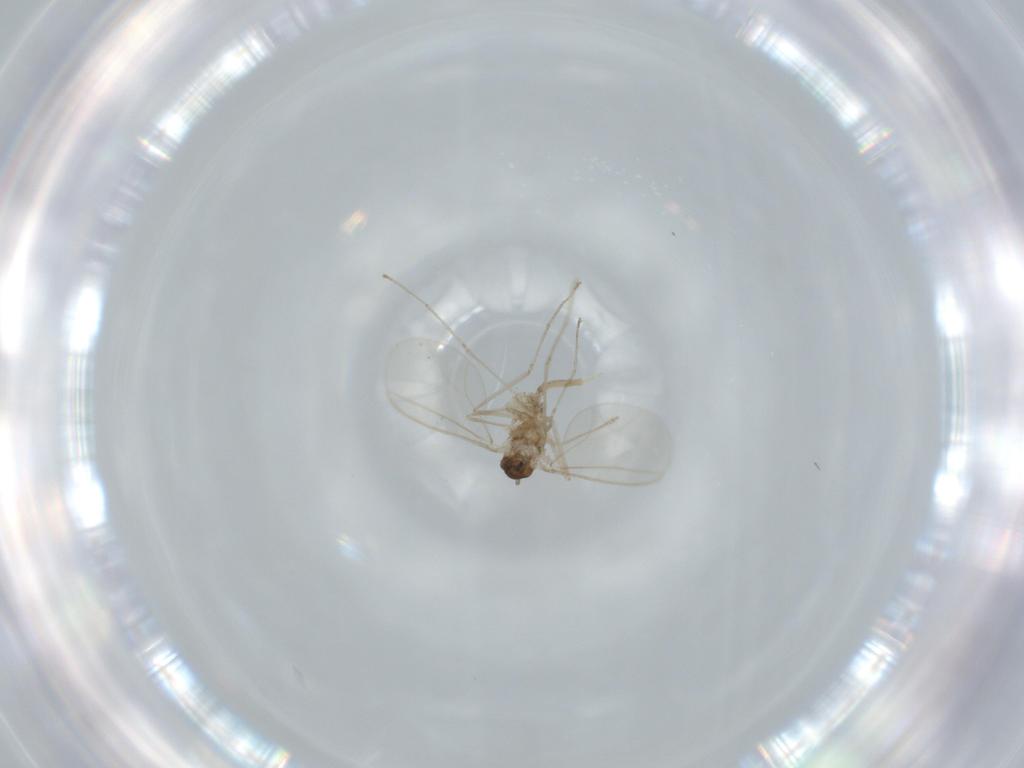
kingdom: Animalia
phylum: Arthropoda
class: Insecta
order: Diptera
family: Cecidomyiidae
